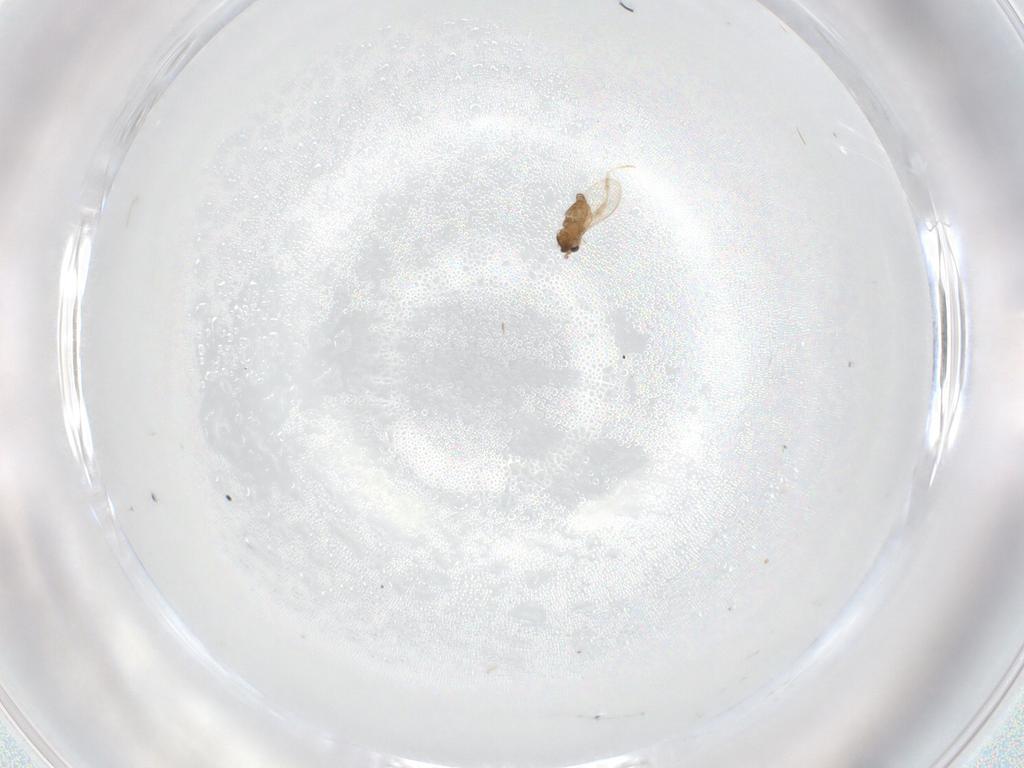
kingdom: Animalia
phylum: Arthropoda
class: Insecta
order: Diptera
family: Cecidomyiidae
